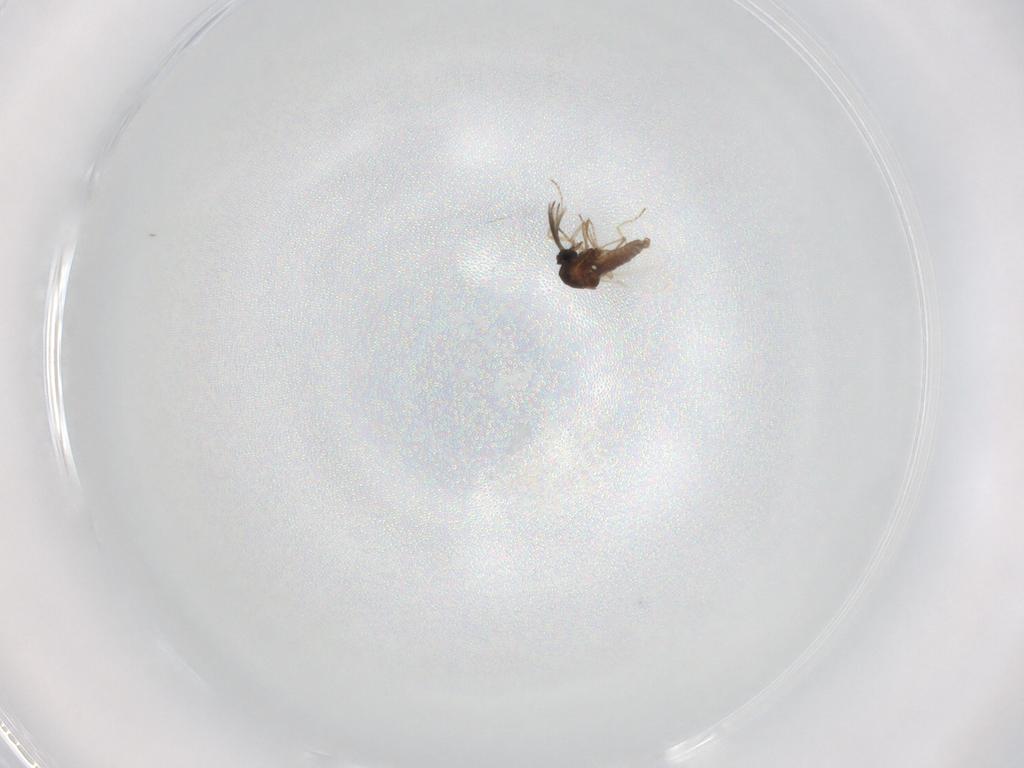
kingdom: Animalia
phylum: Arthropoda
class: Insecta
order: Diptera
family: Ceratopogonidae
